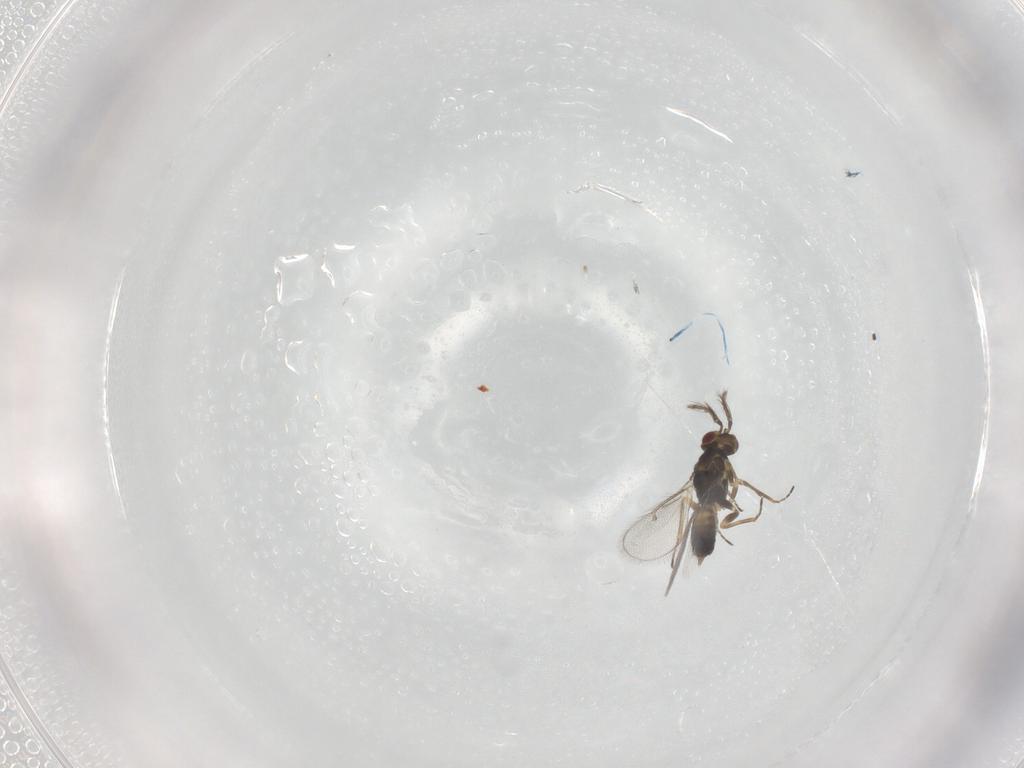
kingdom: Animalia
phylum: Arthropoda
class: Insecta
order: Hymenoptera
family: Eulophidae
